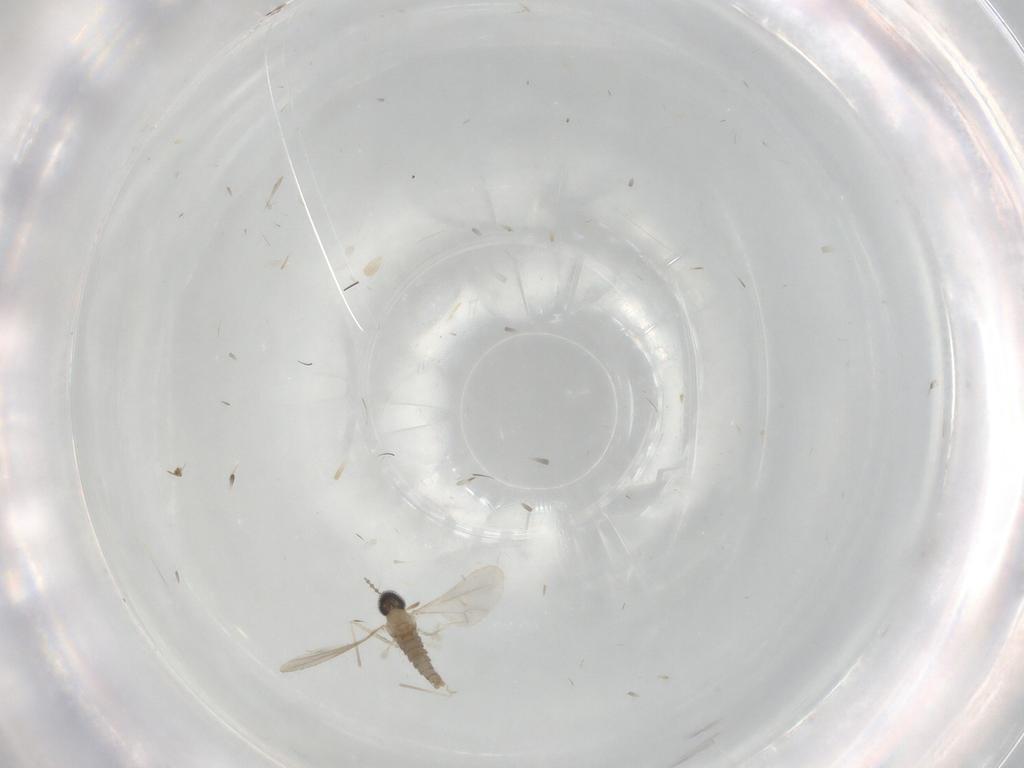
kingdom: Animalia
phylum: Arthropoda
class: Insecta
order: Diptera
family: Cecidomyiidae
